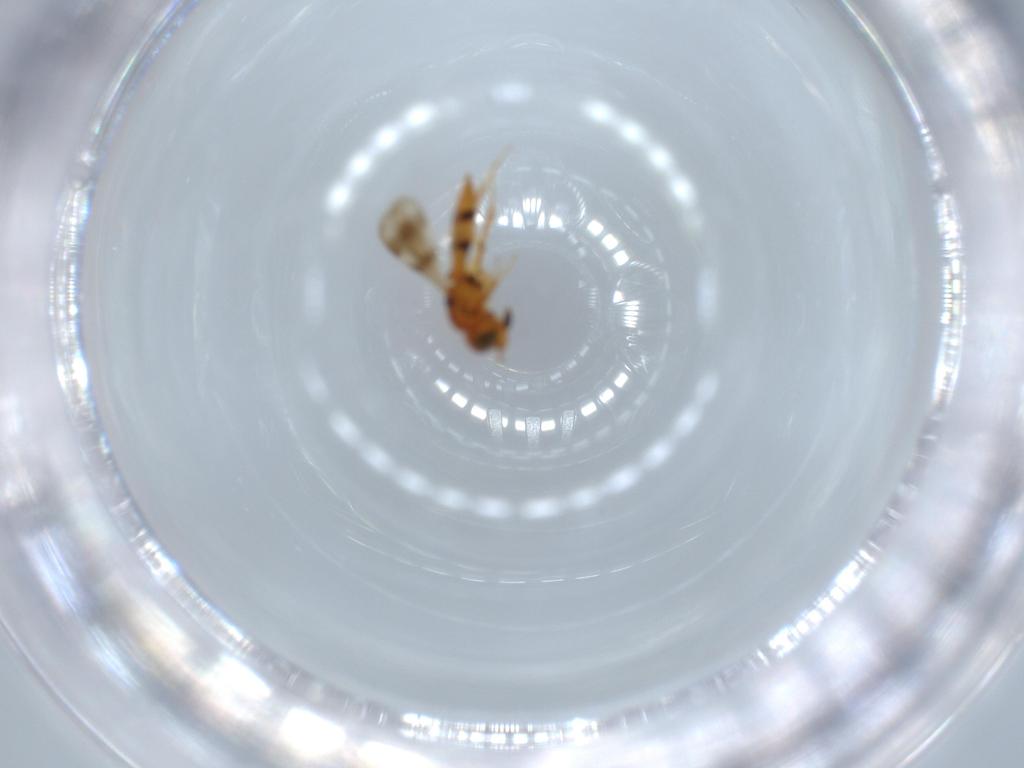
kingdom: Animalia
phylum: Arthropoda
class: Insecta
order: Hymenoptera
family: Scelionidae
